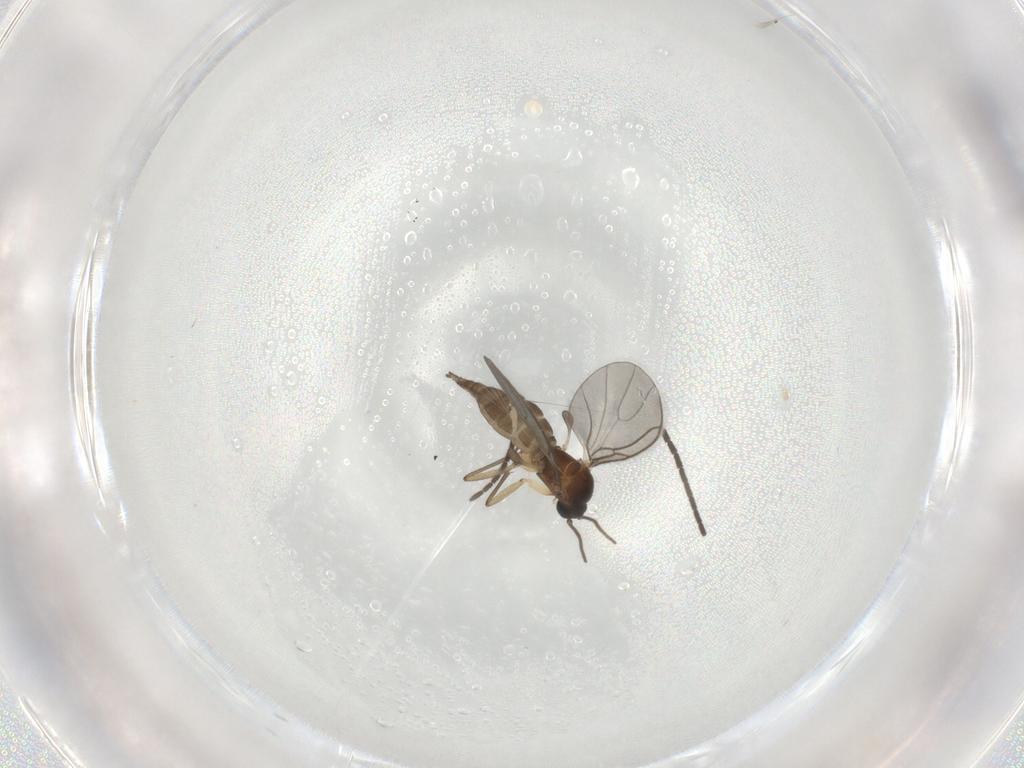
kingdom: Animalia
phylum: Arthropoda
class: Insecta
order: Diptera
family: Sciaridae
